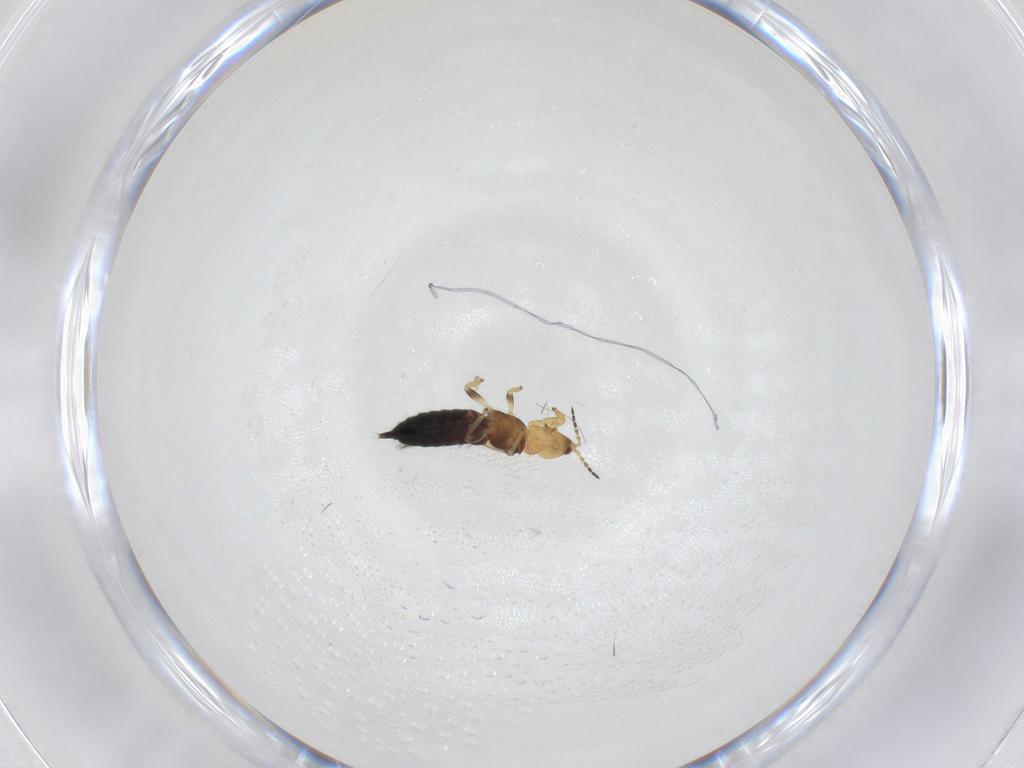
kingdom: Animalia
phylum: Arthropoda
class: Insecta
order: Thysanoptera
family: Phlaeothripidae
